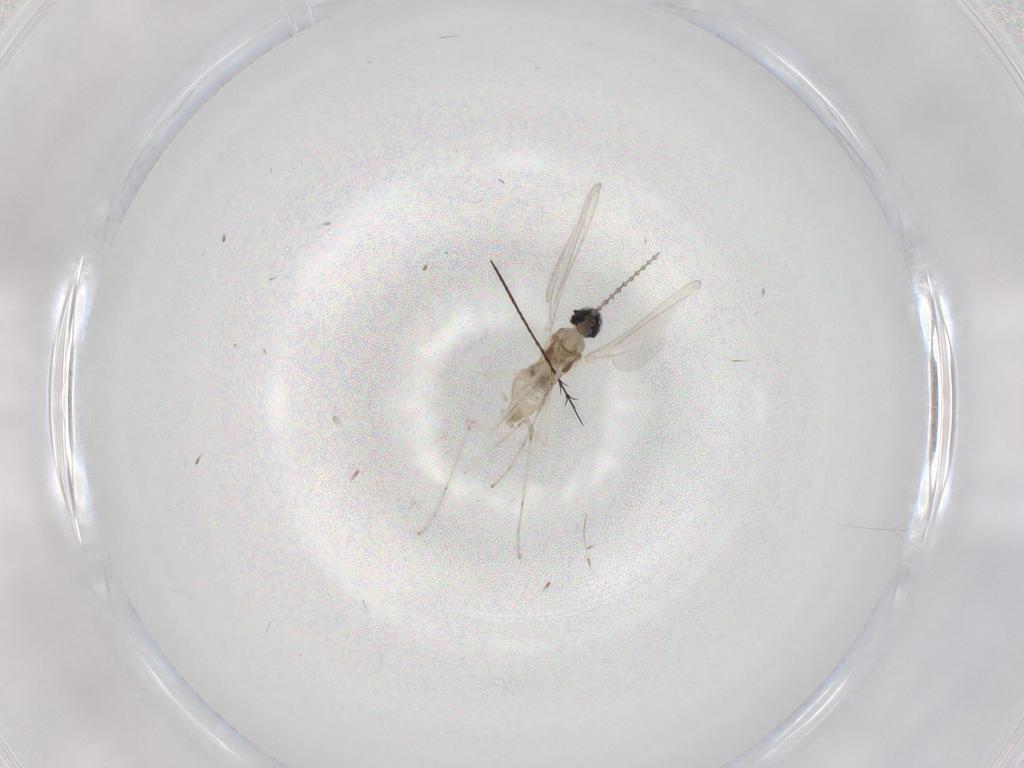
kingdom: Animalia
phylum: Arthropoda
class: Insecta
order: Diptera
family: Cecidomyiidae
